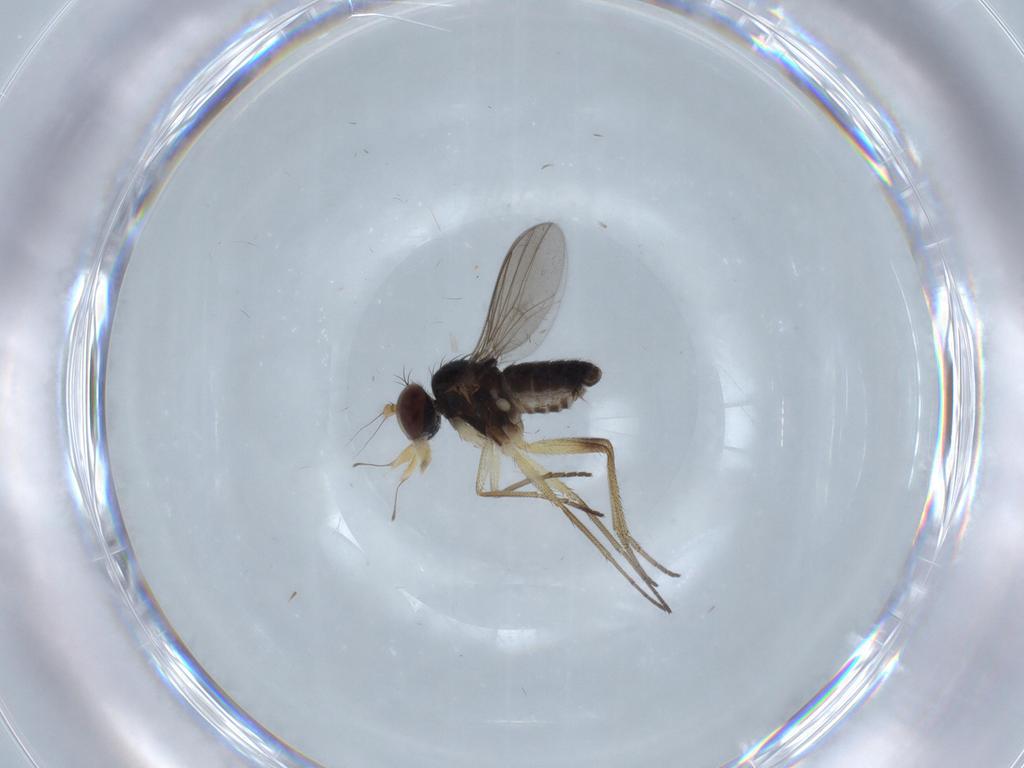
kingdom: Animalia
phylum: Arthropoda
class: Insecta
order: Diptera
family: Dolichopodidae
